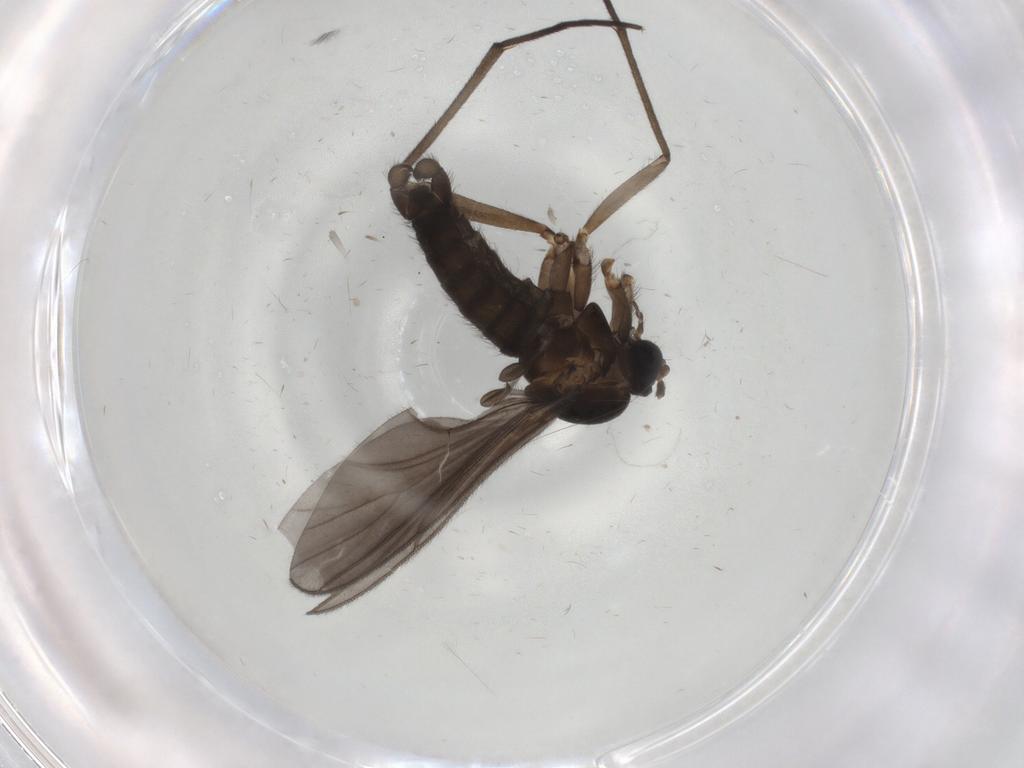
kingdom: Animalia
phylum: Arthropoda
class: Insecta
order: Diptera
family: Sciaridae
